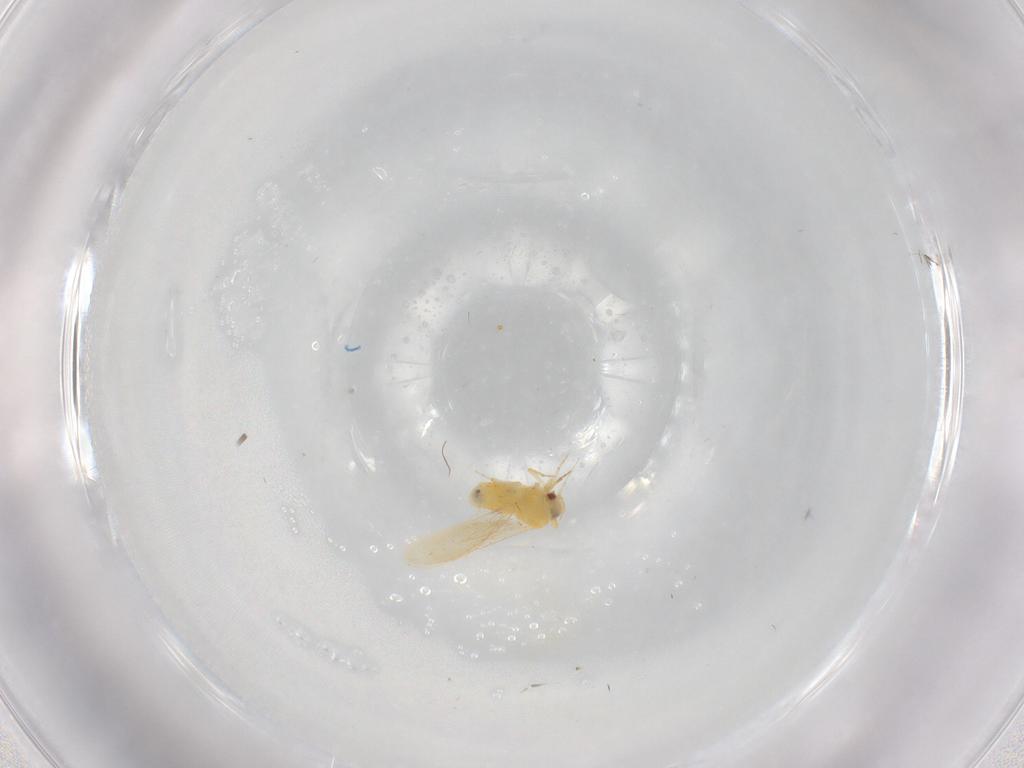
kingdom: Animalia
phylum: Arthropoda
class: Insecta
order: Hemiptera
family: Aleyrodidae
